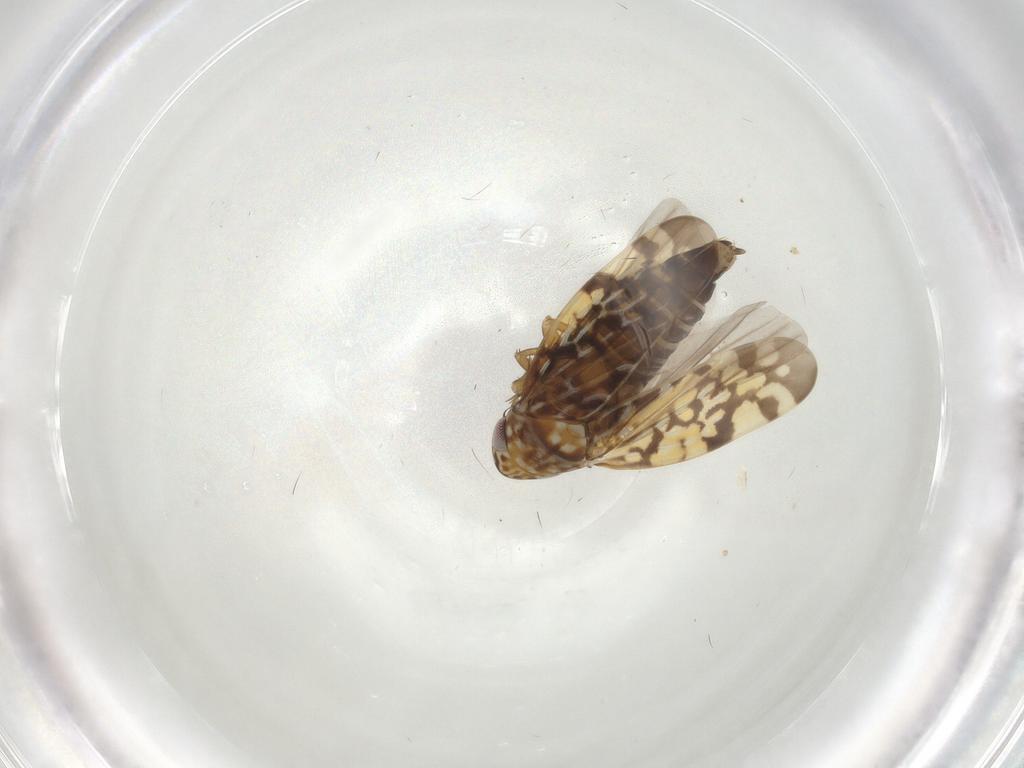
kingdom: Animalia
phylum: Arthropoda
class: Insecta
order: Hemiptera
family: Cicadellidae
